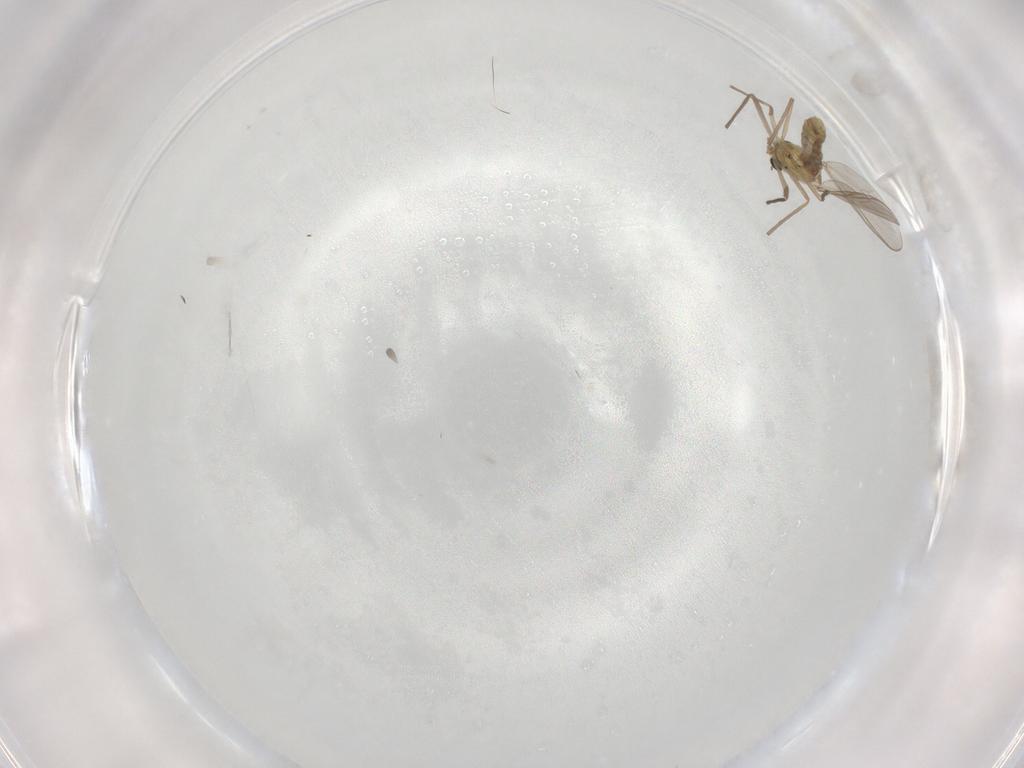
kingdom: Animalia
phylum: Arthropoda
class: Insecta
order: Diptera
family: Chironomidae
